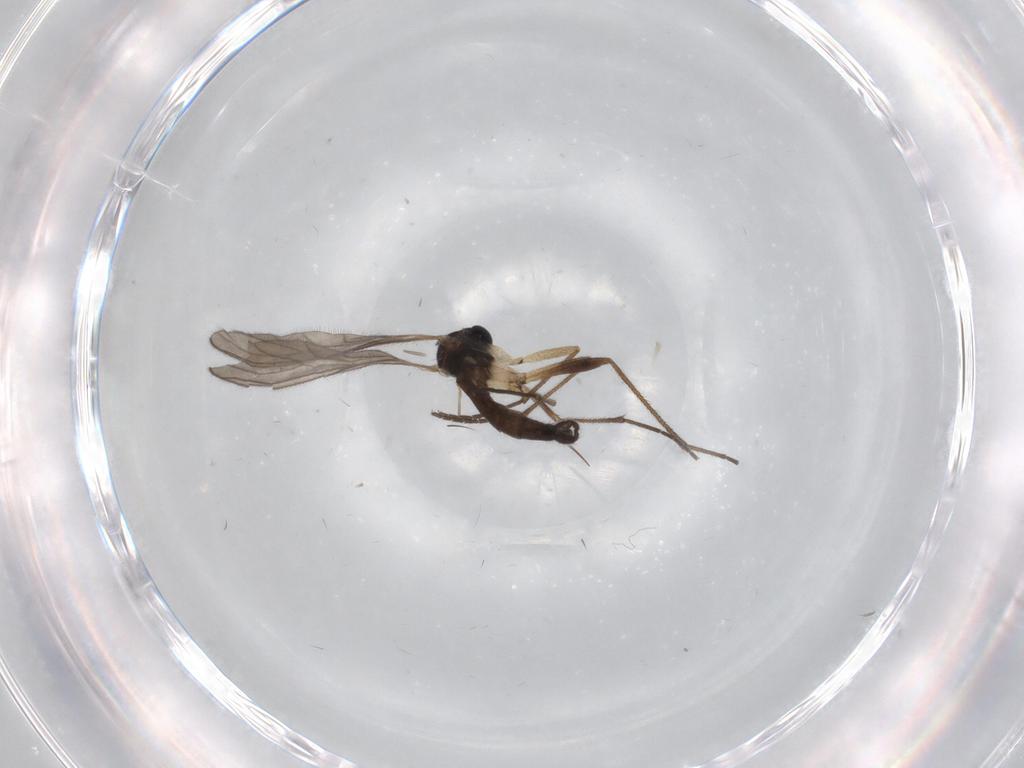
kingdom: Animalia
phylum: Arthropoda
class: Insecta
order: Diptera
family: Sciaridae
